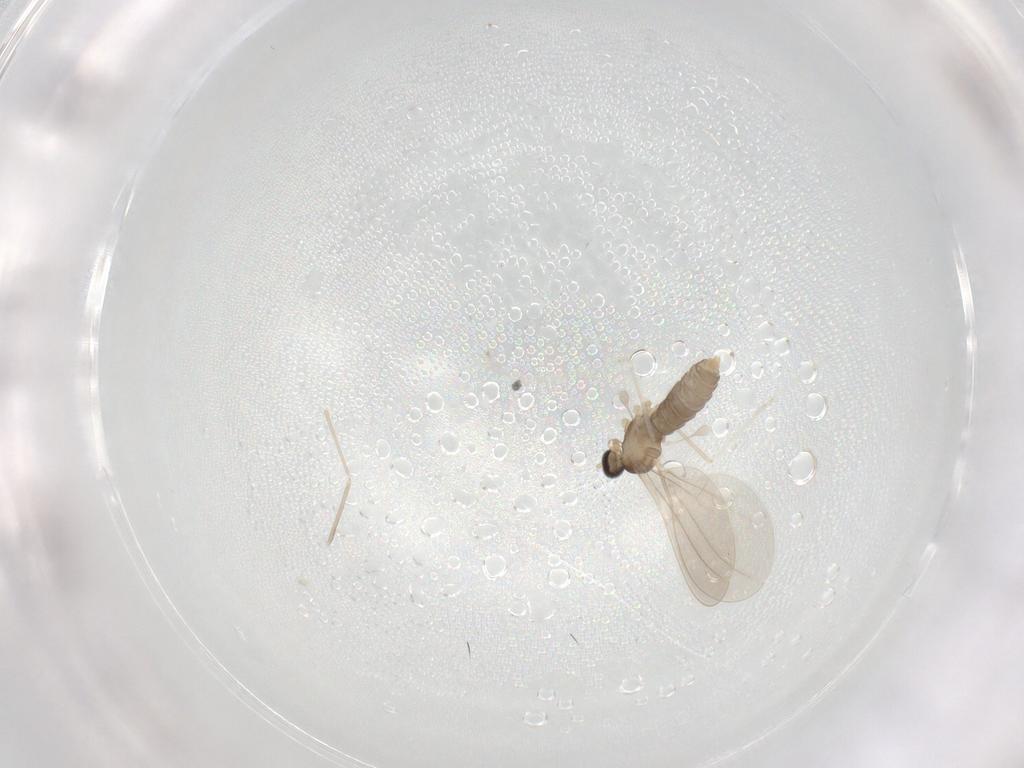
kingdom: Animalia
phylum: Arthropoda
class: Insecta
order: Diptera
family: Cecidomyiidae
